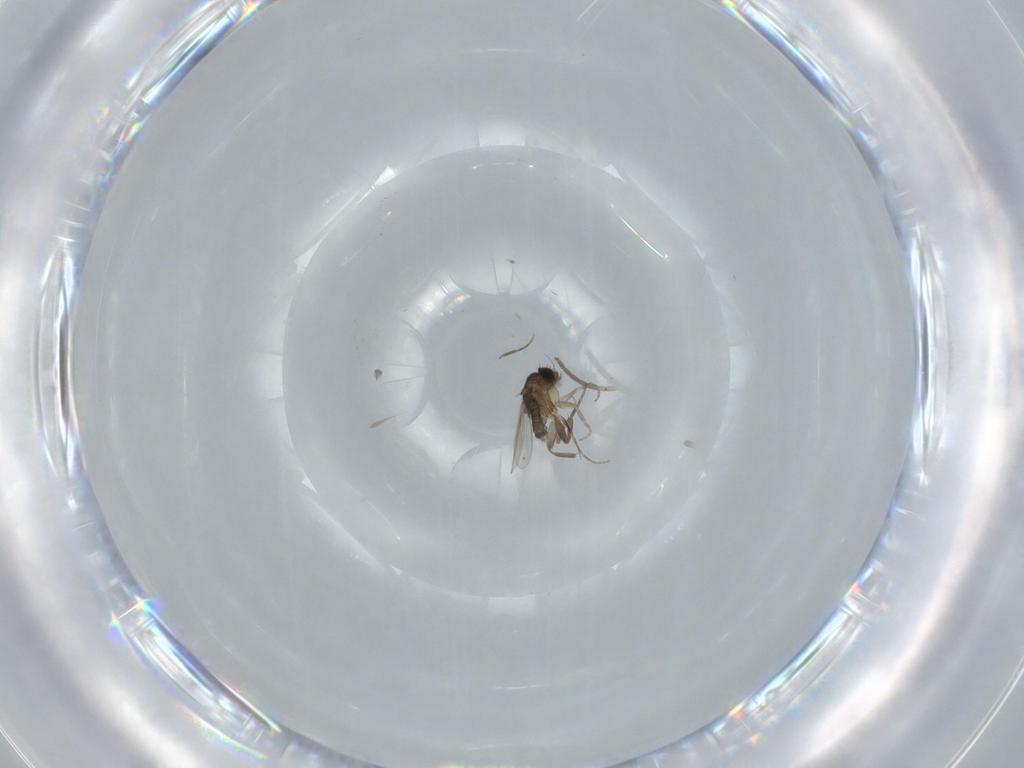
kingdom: Animalia
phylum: Arthropoda
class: Insecta
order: Diptera
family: Phoridae
